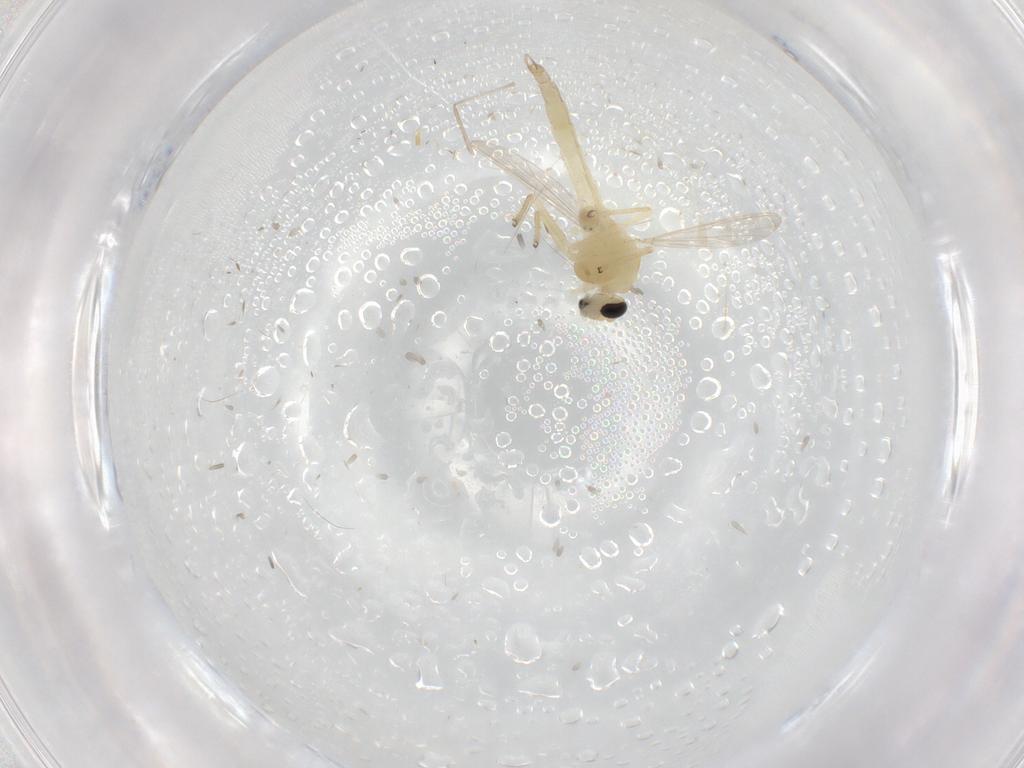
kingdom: Animalia
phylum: Arthropoda
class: Insecta
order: Diptera
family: Chironomidae
